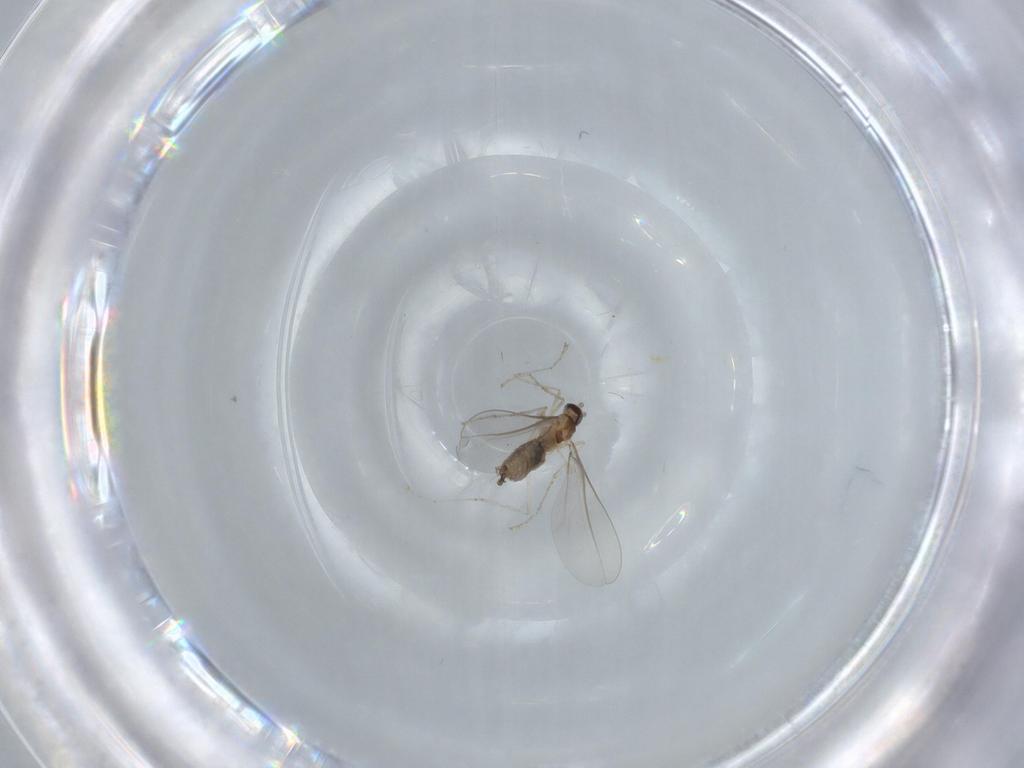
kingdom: Animalia
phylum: Arthropoda
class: Insecta
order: Diptera
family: Cecidomyiidae
